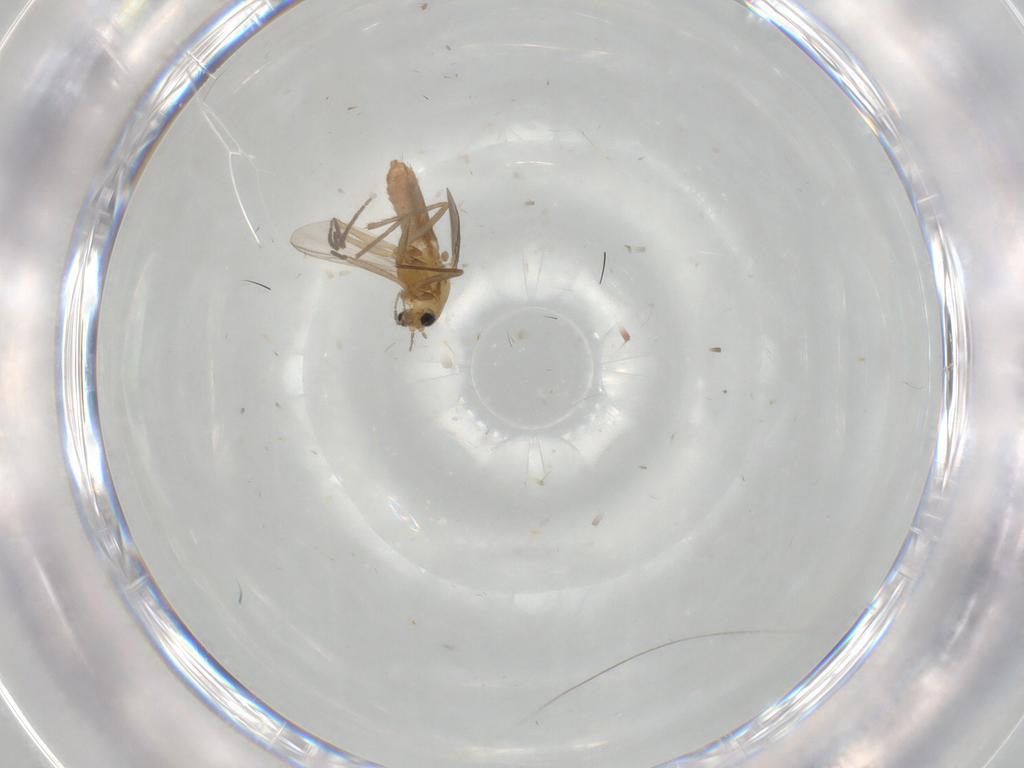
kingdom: Animalia
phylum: Arthropoda
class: Insecta
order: Diptera
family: Chironomidae
